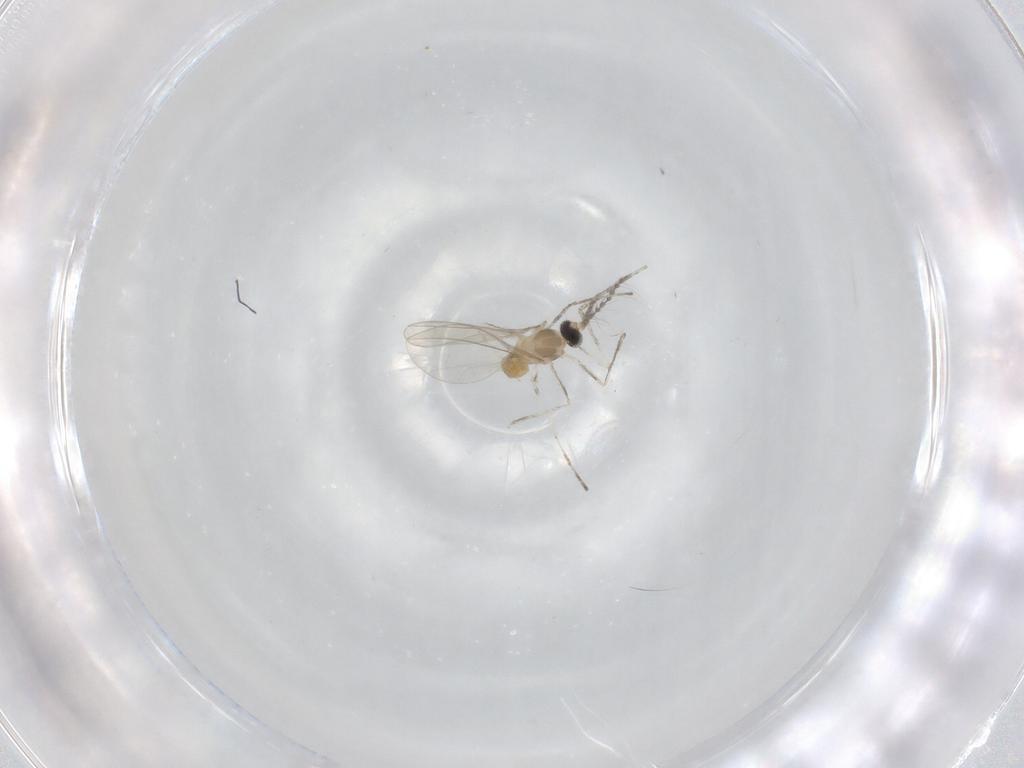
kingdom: Animalia
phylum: Arthropoda
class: Insecta
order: Diptera
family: Cecidomyiidae
